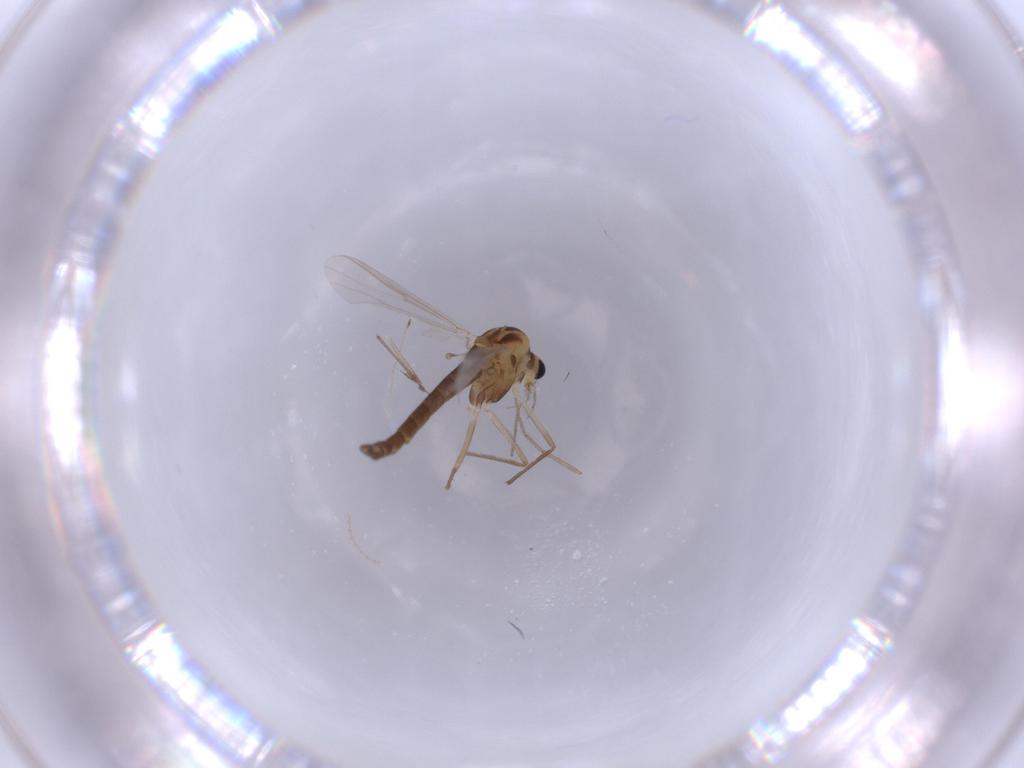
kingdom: Animalia
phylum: Arthropoda
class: Insecta
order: Diptera
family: Chironomidae
